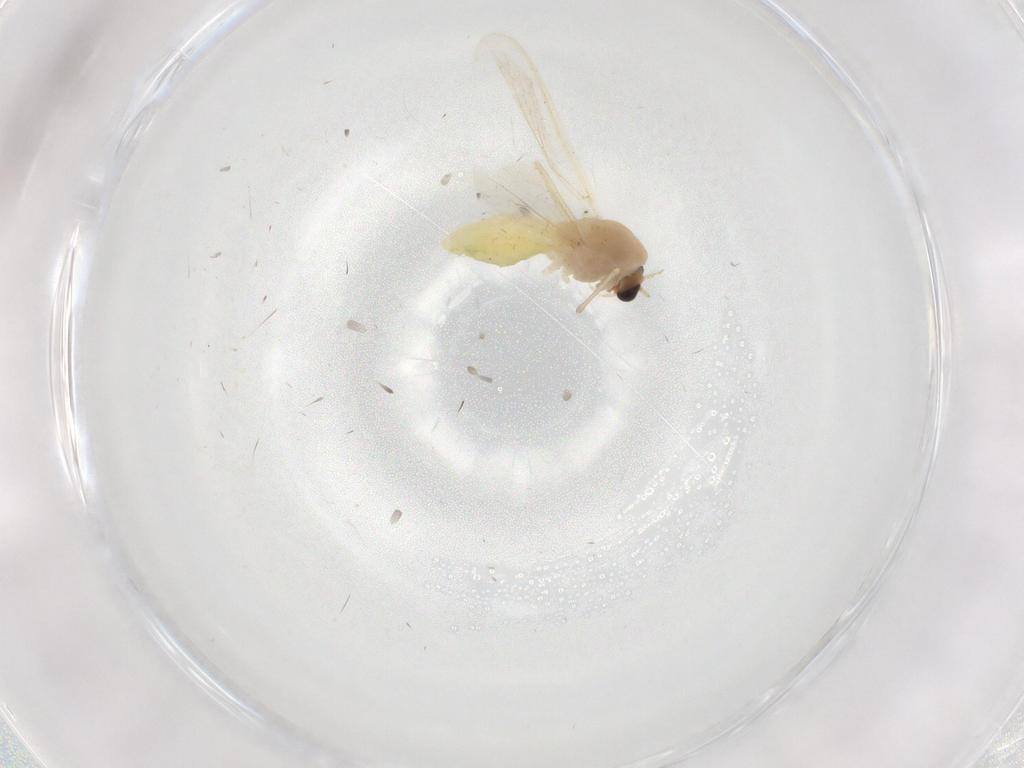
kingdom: Animalia
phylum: Arthropoda
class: Insecta
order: Diptera
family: Chironomidae
